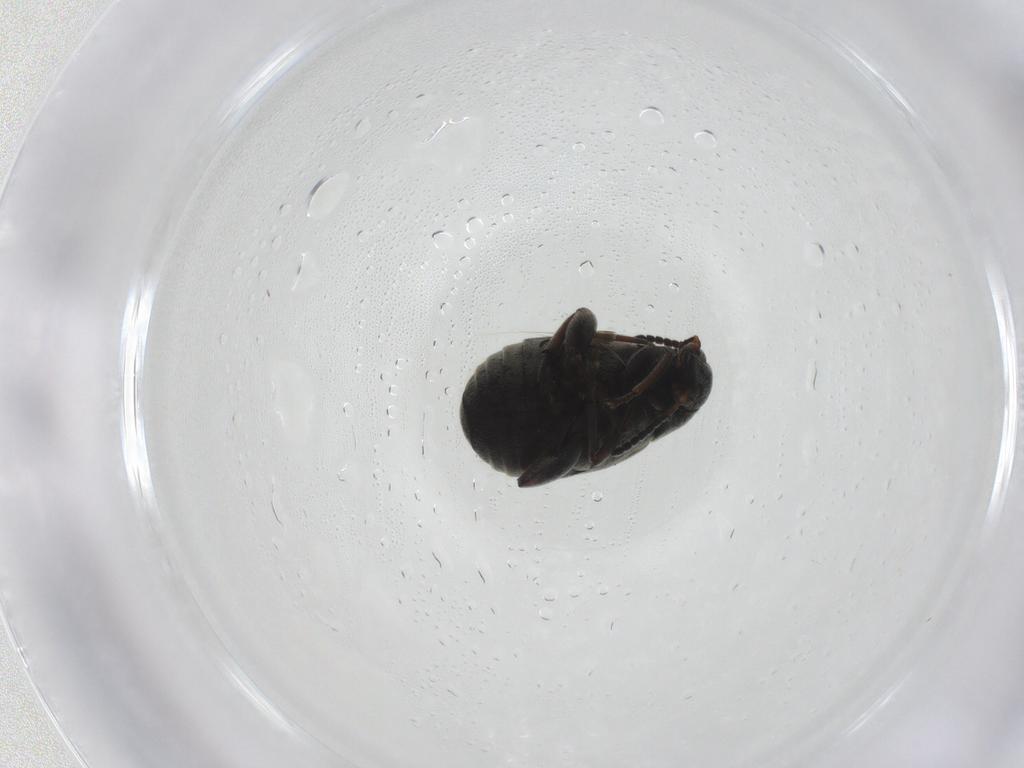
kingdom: Animalia
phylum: Arthropoda
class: Insecta
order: Coleoptera
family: Chrysomelidae
